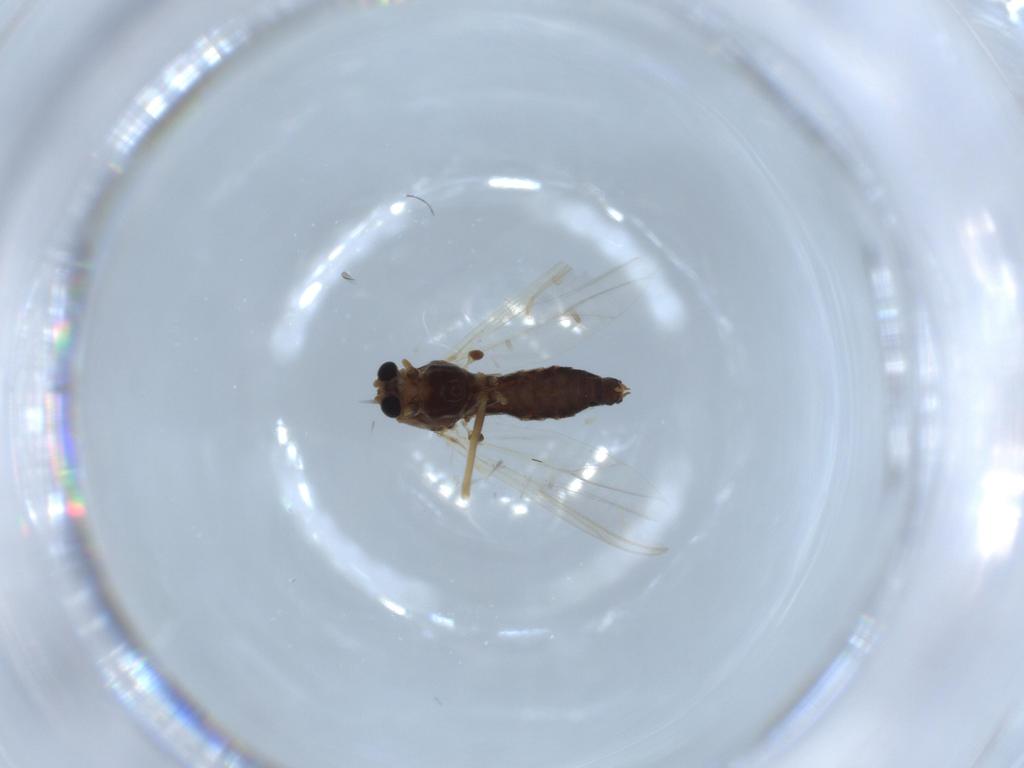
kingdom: Animalia
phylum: Arthropoda
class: Insecta
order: Diptera
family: Chironomidae
